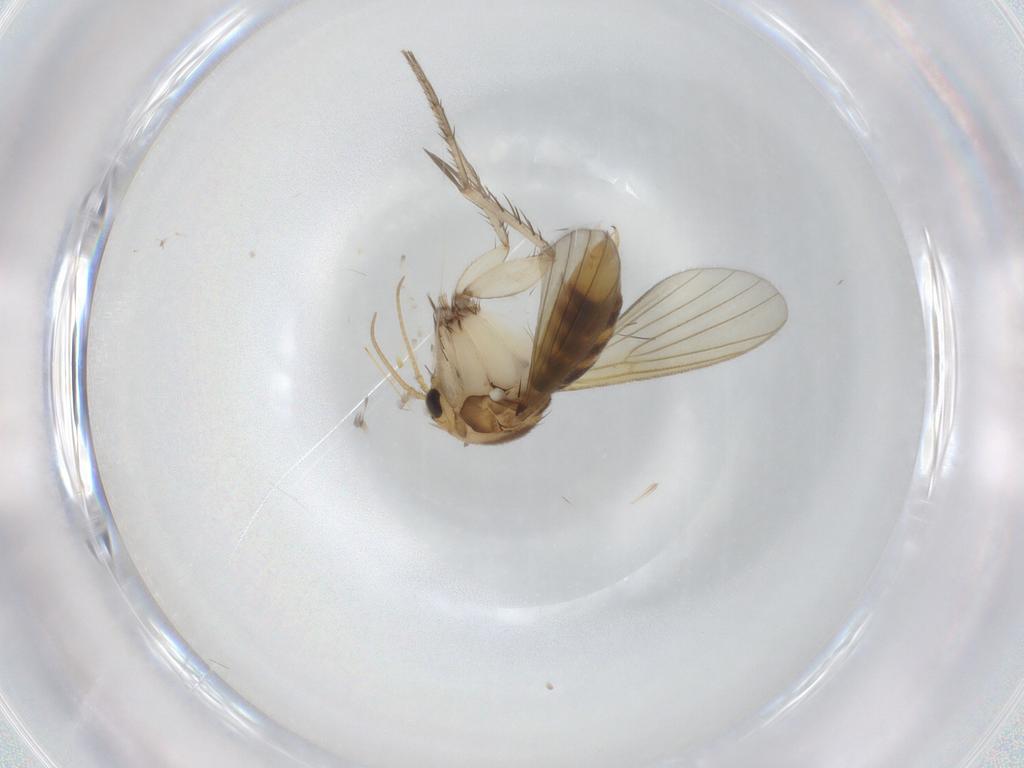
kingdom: Animalia
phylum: Arthropoda
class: Insecta
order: Diptera
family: Mycetophilidae
